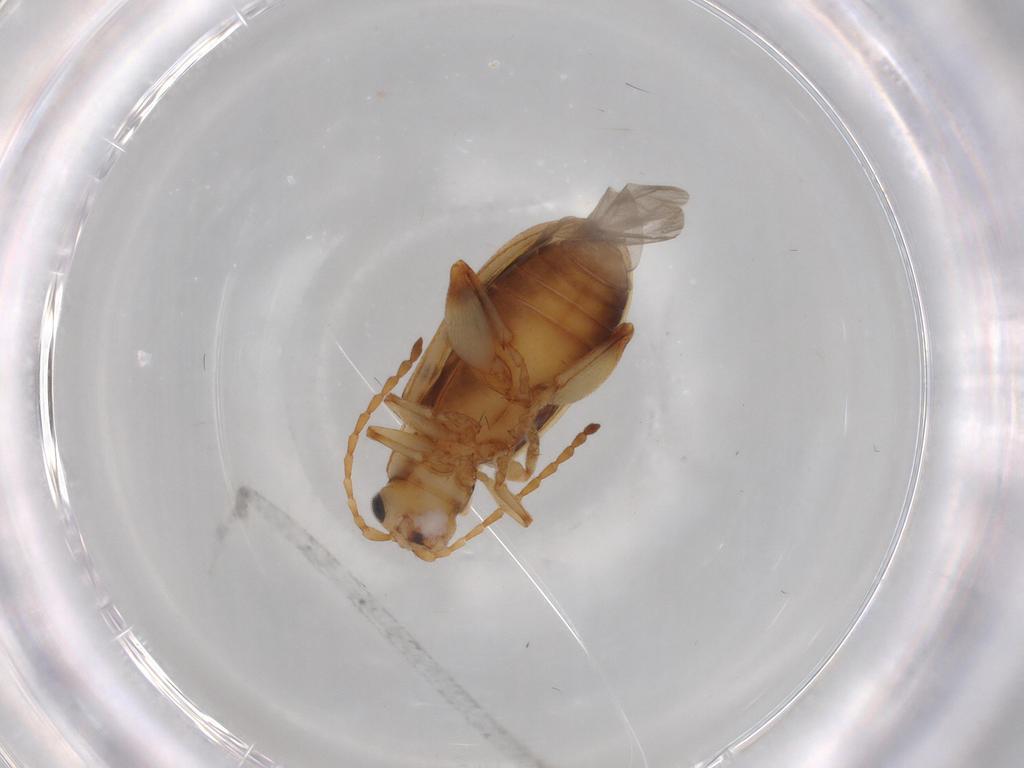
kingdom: Animalia
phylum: Arthropoda
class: Insecta
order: Coleoptera
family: Chrysomelidae
